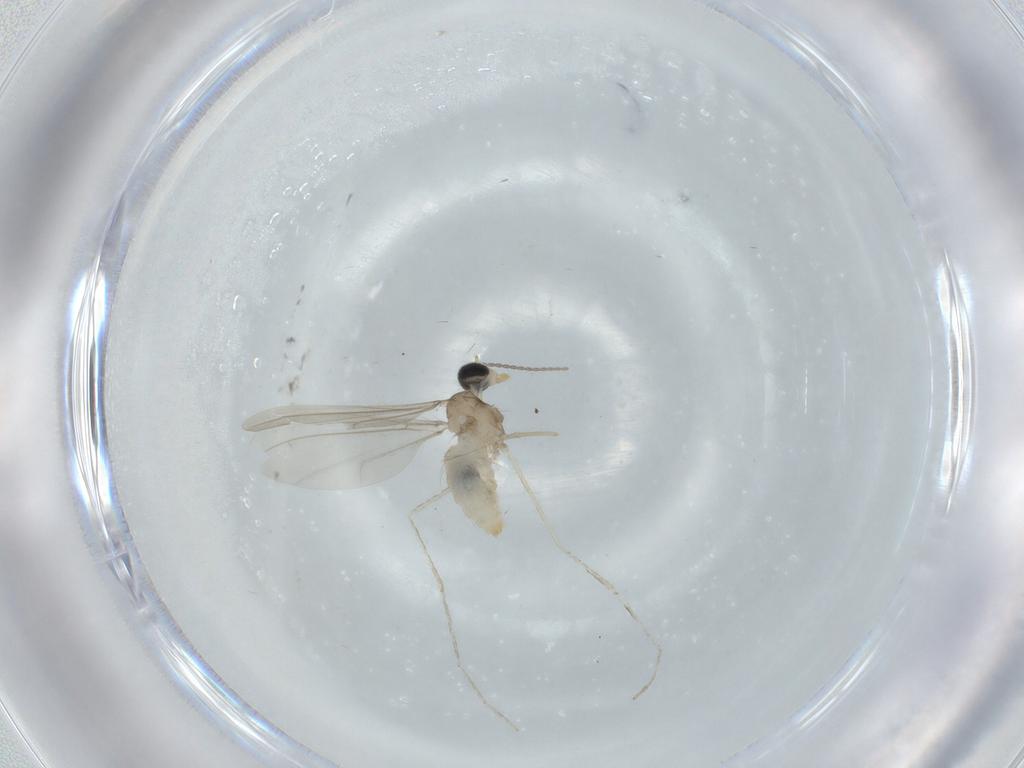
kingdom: Animalia
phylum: Arthropoda
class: Insecta
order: Diptera
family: Cecidomyiidae
